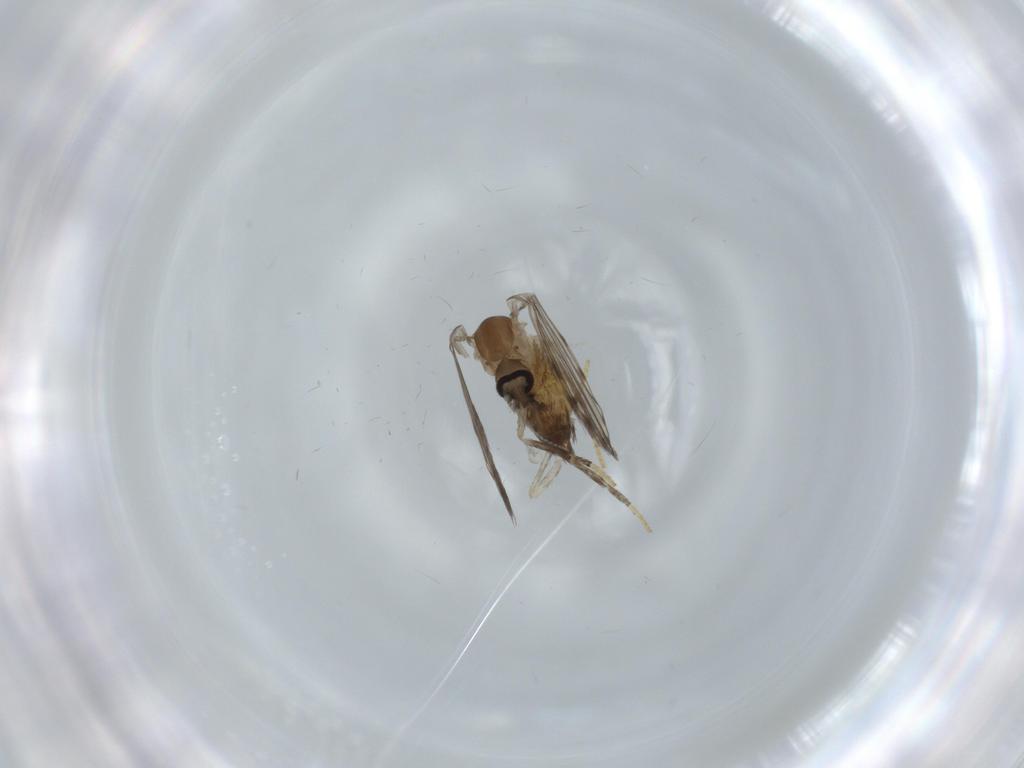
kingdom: Animalia
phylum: Arthropoda
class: Insecta
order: Diptera
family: Psychodidae
